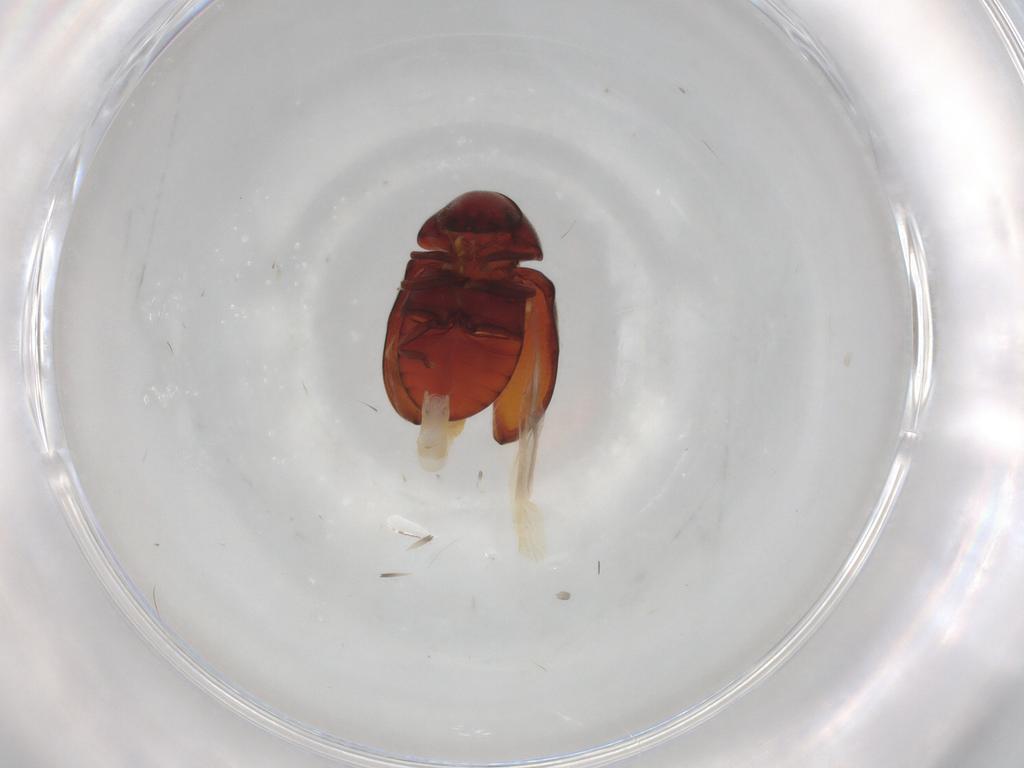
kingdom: Animalia
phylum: Arthropoda
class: Insecta
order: Coleoptera
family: Ptinidae
